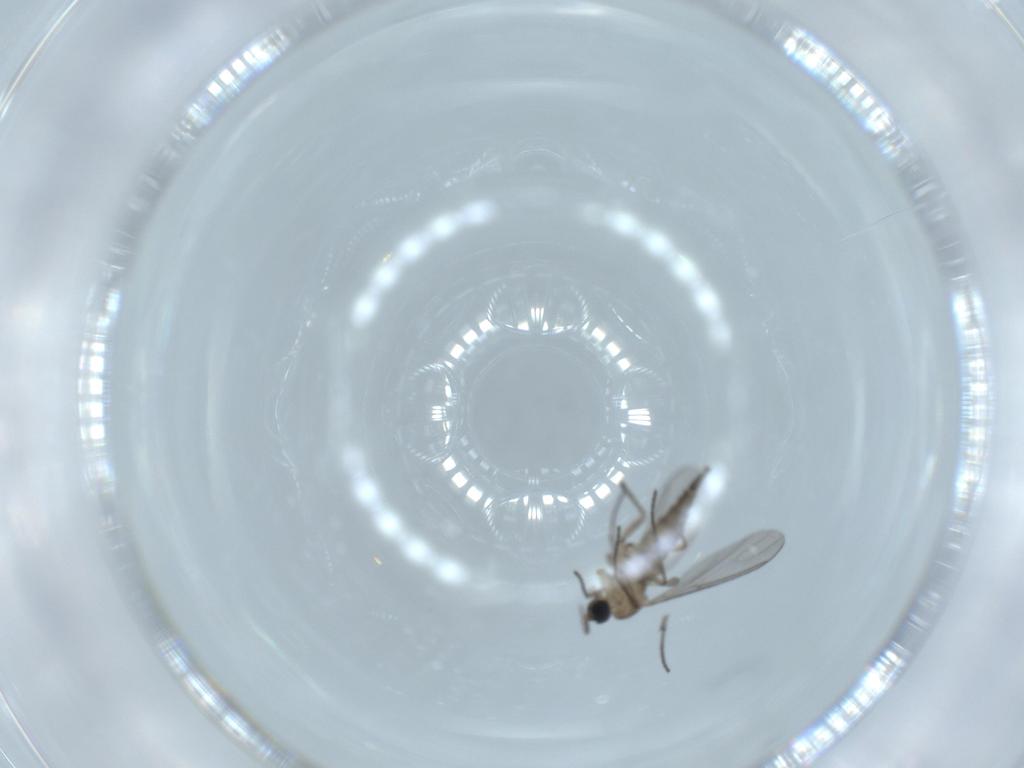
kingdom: Animalia
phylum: Arthropoda
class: Insecta
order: Diptera
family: Sciaridae
